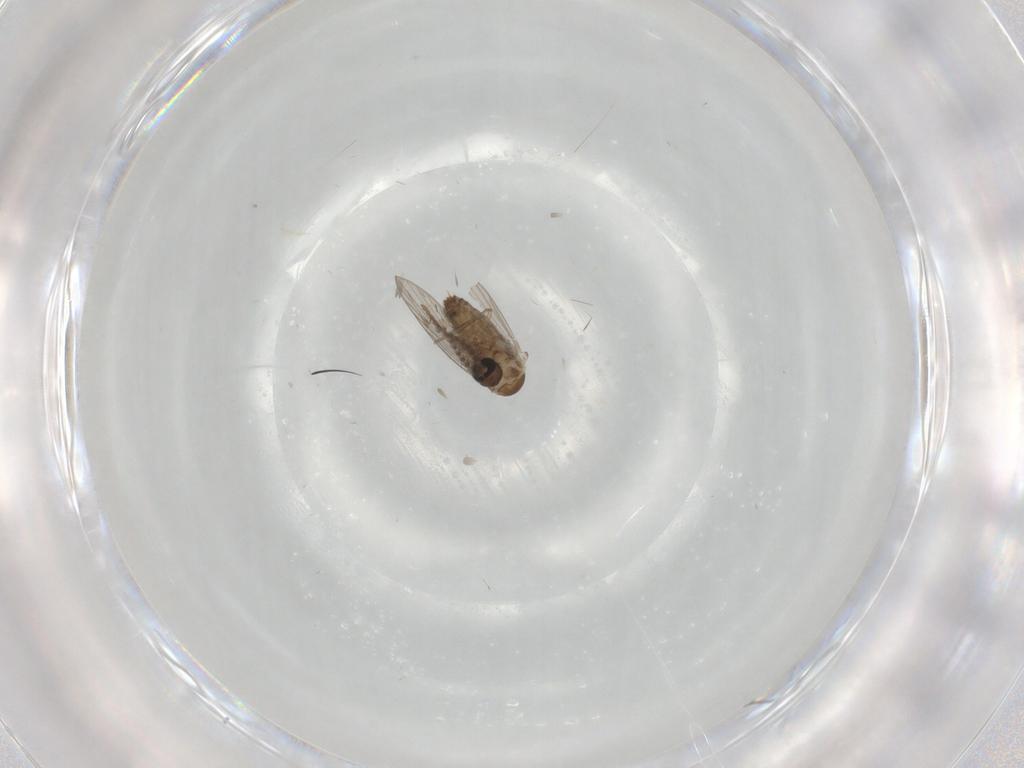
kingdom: Animalia
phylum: Arthropoda
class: Insecta
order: Diptera
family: Psychodidae
